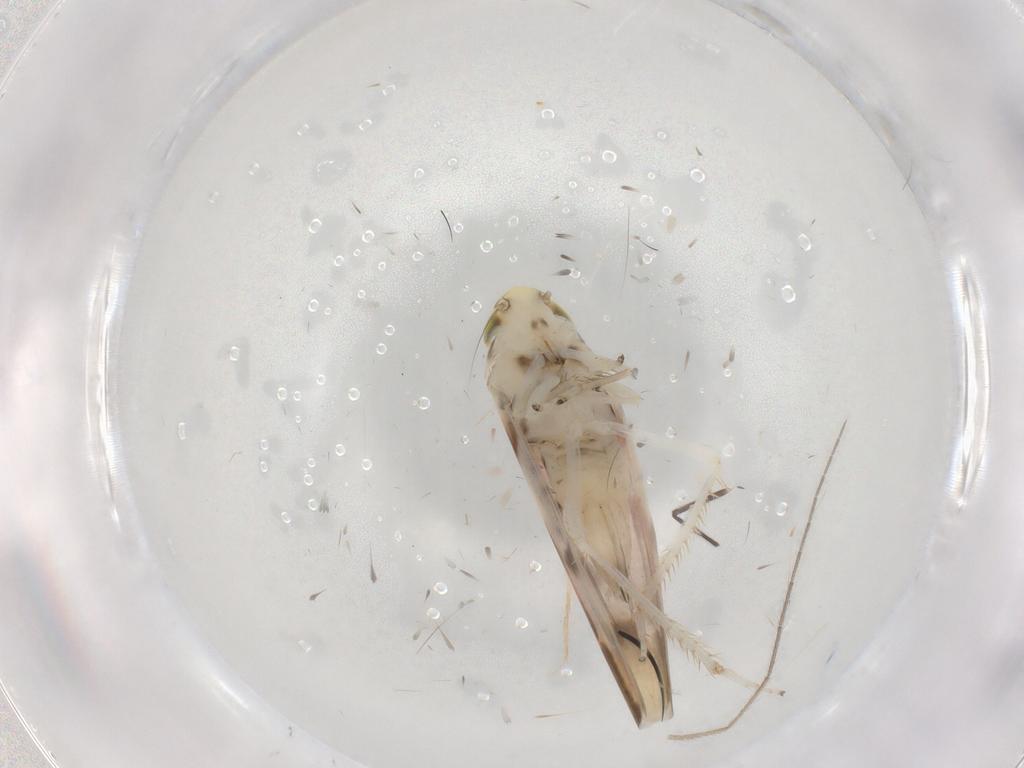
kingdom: Animalia
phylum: Arthropoda
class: Insecta
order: Hemiptera
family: Cicadellidae
